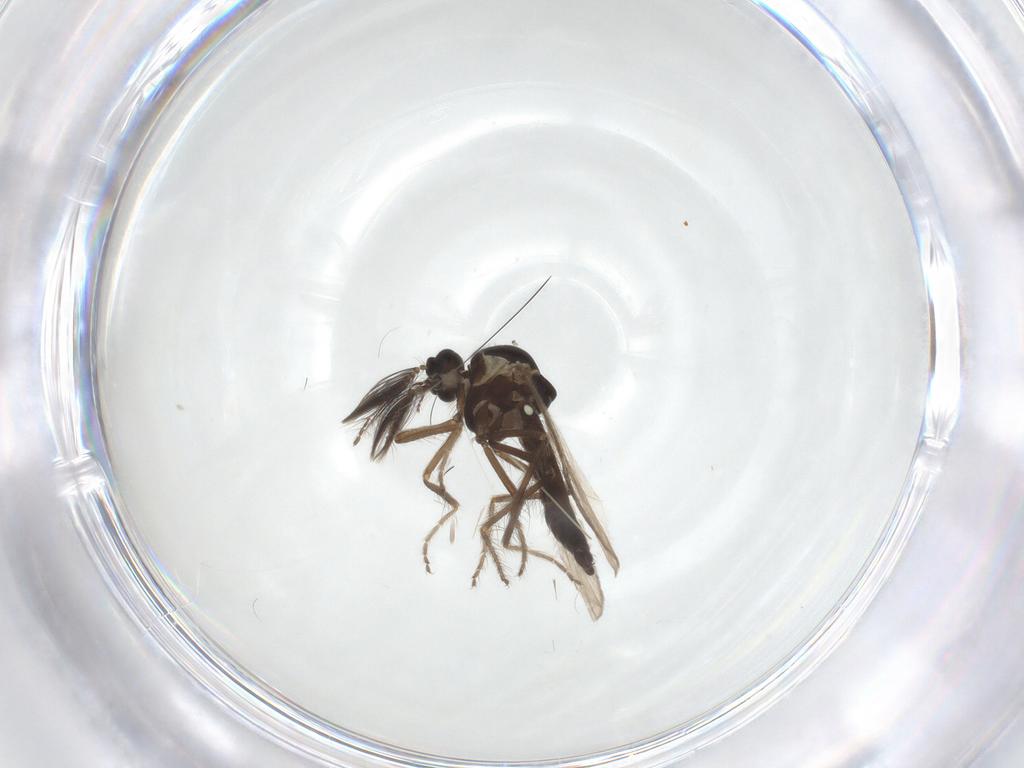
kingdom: Animalia
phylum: Arthropoda
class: Insecta
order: Diptera
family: Ceratopogonidae
